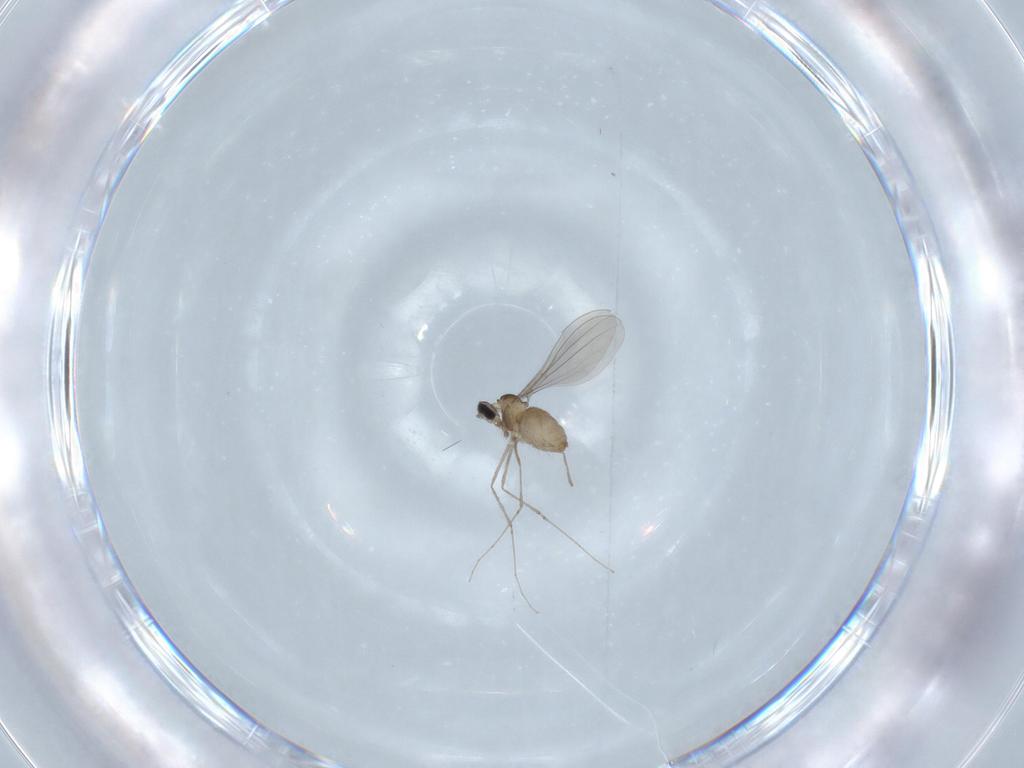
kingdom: Animalia
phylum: Arthropoda
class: Insecta
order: Diptera
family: Cecidomyiidae
